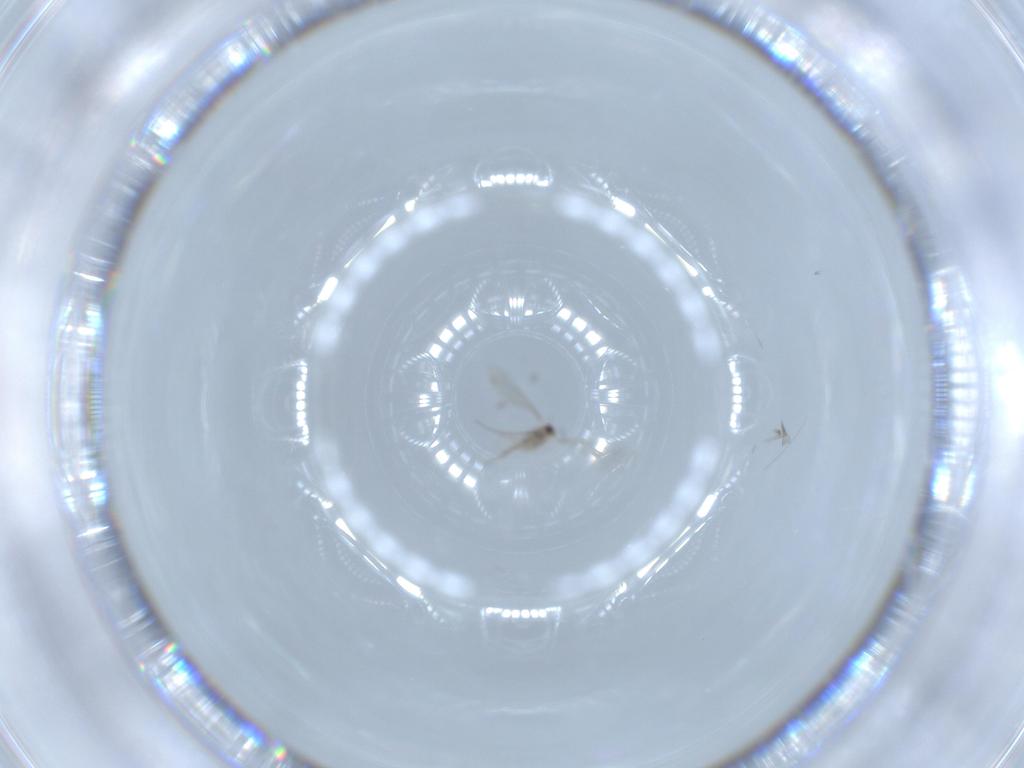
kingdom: Animalia
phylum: Arthropoda
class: Insecta
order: Diptera
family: Cecidomyiidae
